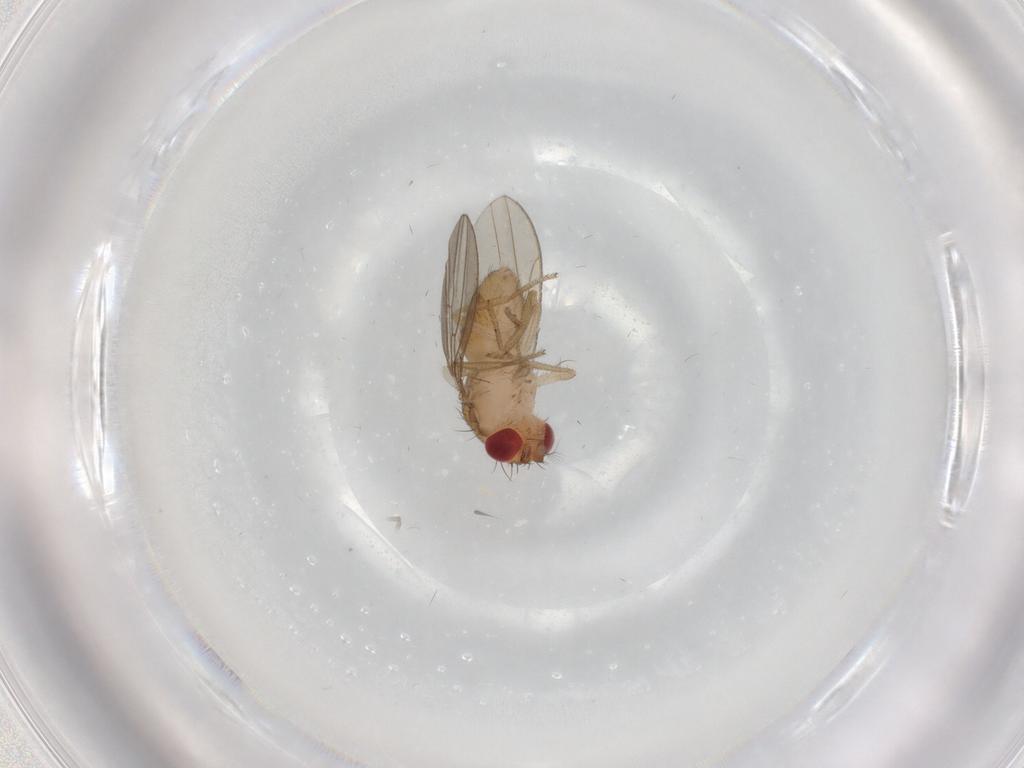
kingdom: Animalia
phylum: Arthropoda
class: Insecta
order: Diptera
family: Drosophilidae
